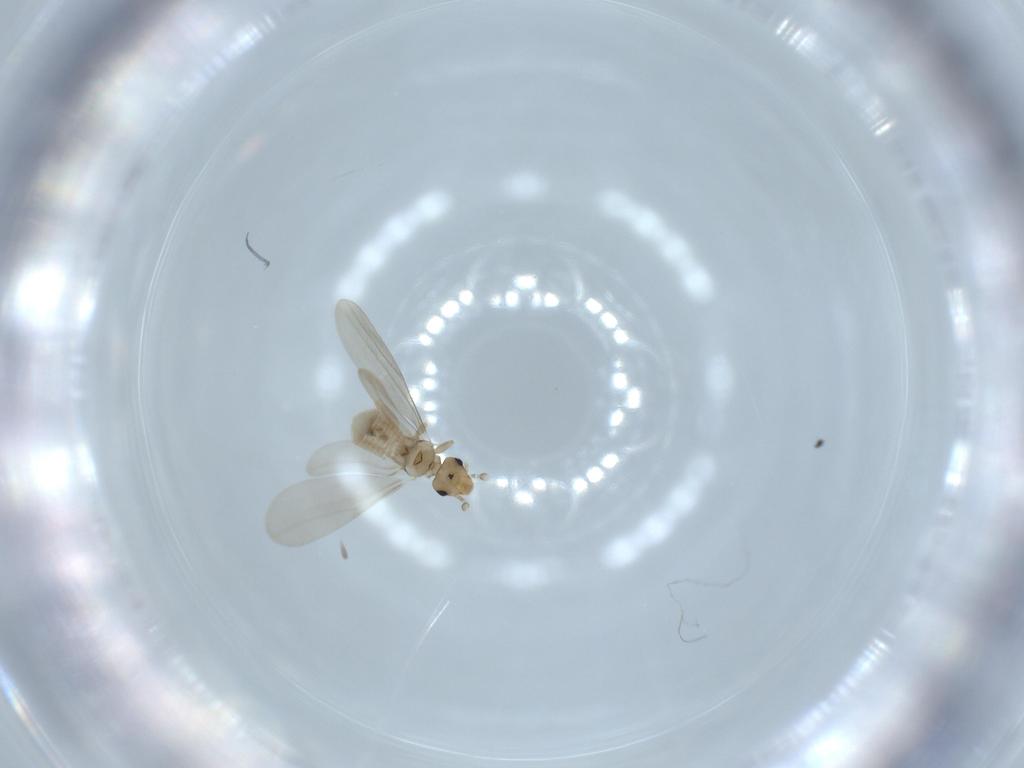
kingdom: Animalia
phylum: Arthropoda
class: Insecta
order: Psocodea
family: Liposcelididae
